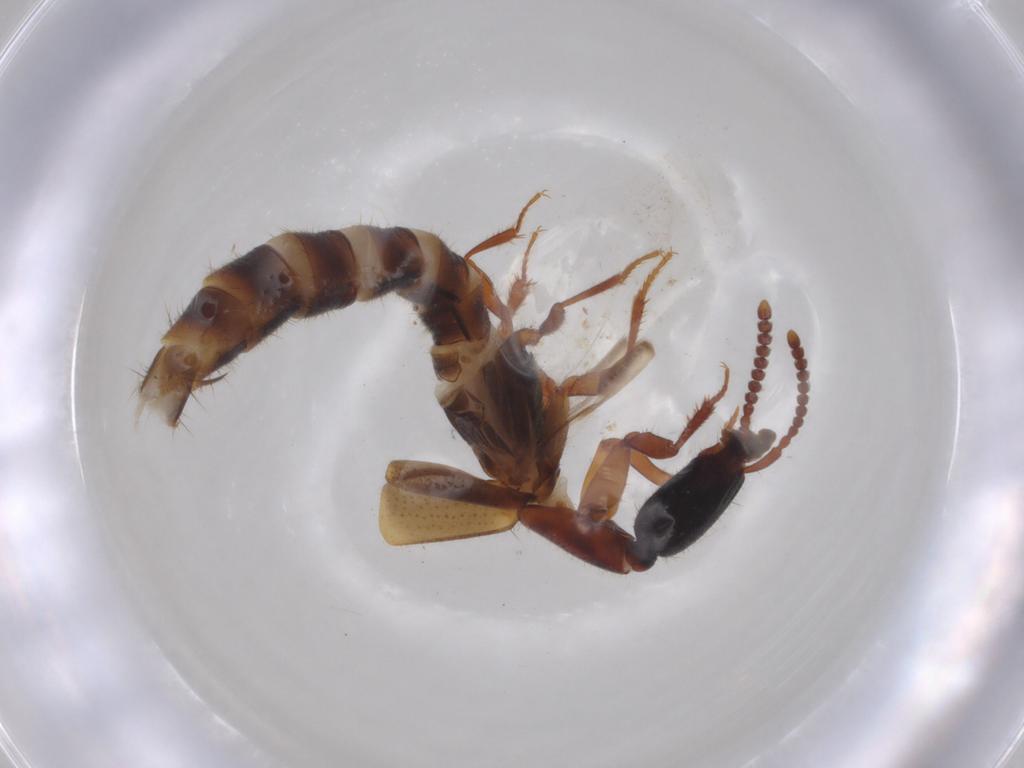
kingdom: Animalia
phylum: Arthropoda
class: Insecta
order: Coleoptera
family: Staphylinidae
